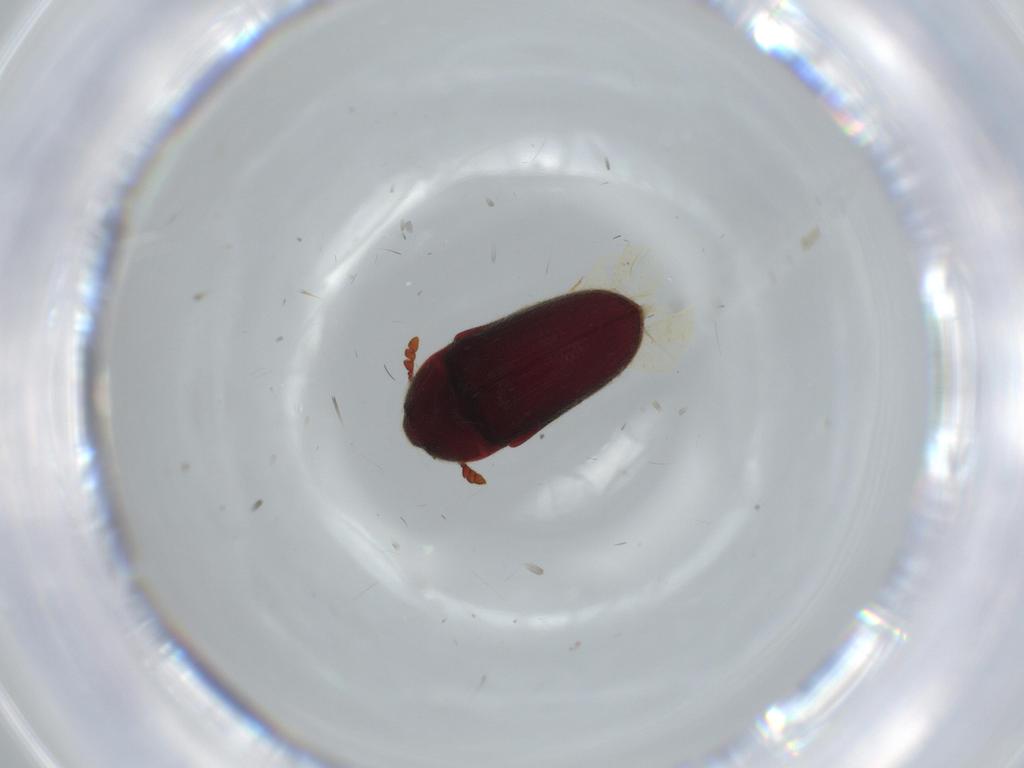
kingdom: Animalia
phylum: Arthropoda
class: Insecta
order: Coleoptera
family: Throscidae
